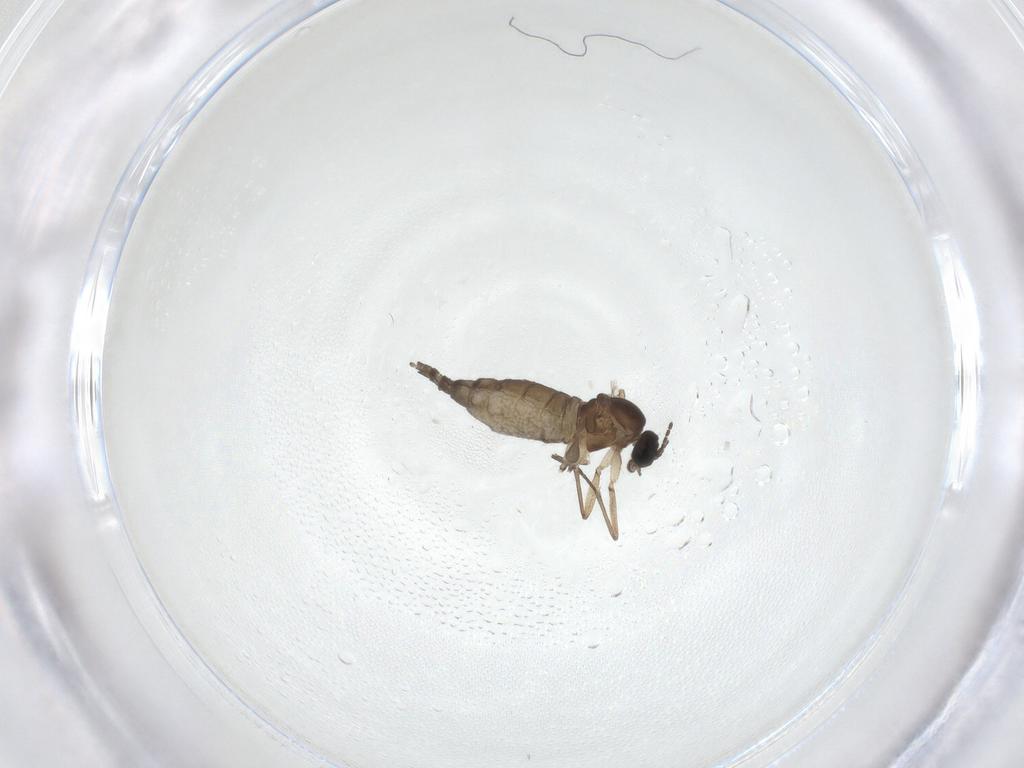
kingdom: Animalia
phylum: Arthropoda
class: Insecta
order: Diptera
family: Sciaridae
